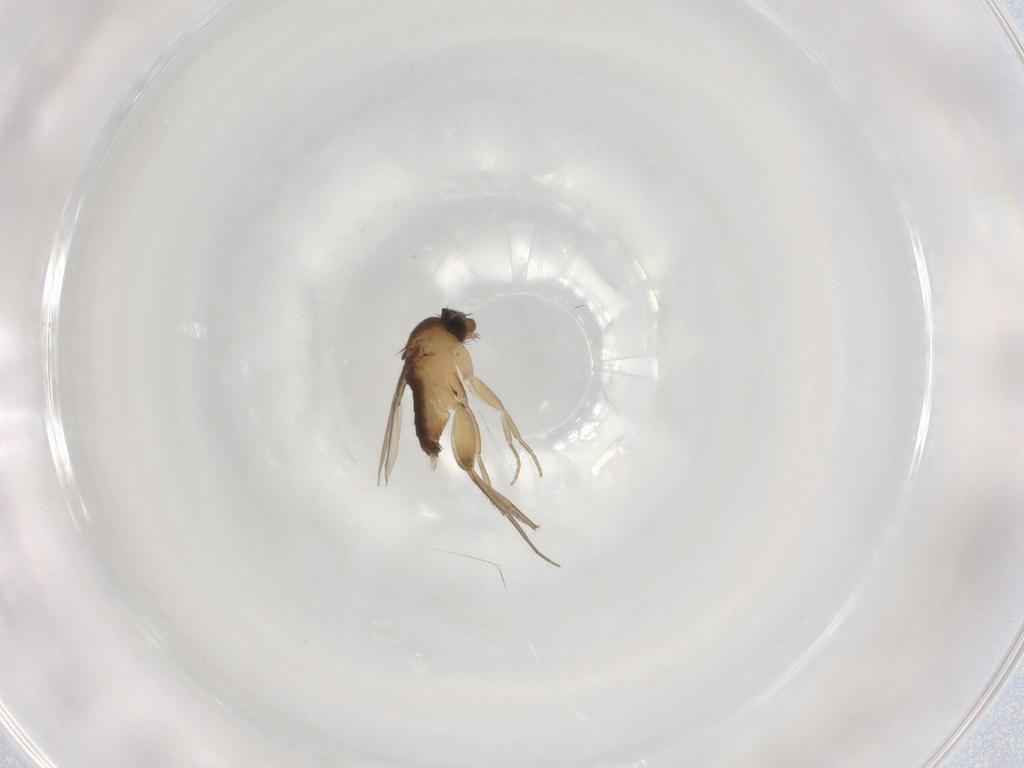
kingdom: Animalia
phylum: Arthropoda
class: Insecta
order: Diptera
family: Phoridae
